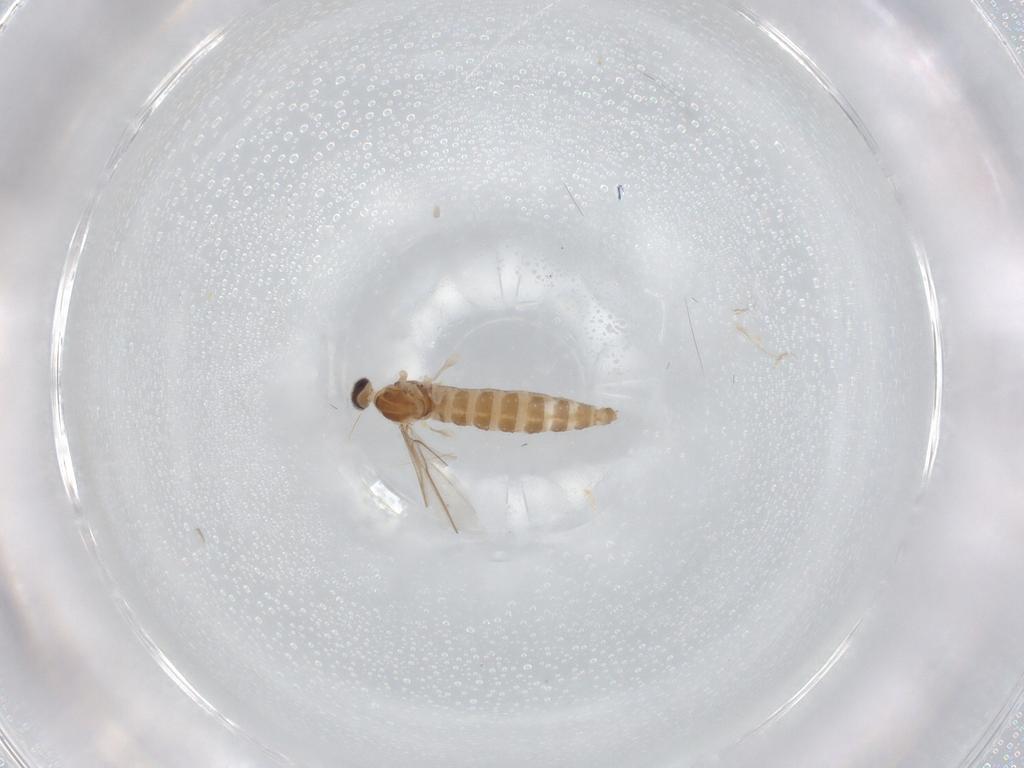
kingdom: Animalia
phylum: Arthropoda
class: Insecta
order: Diptera
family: Cecidomyiidae
